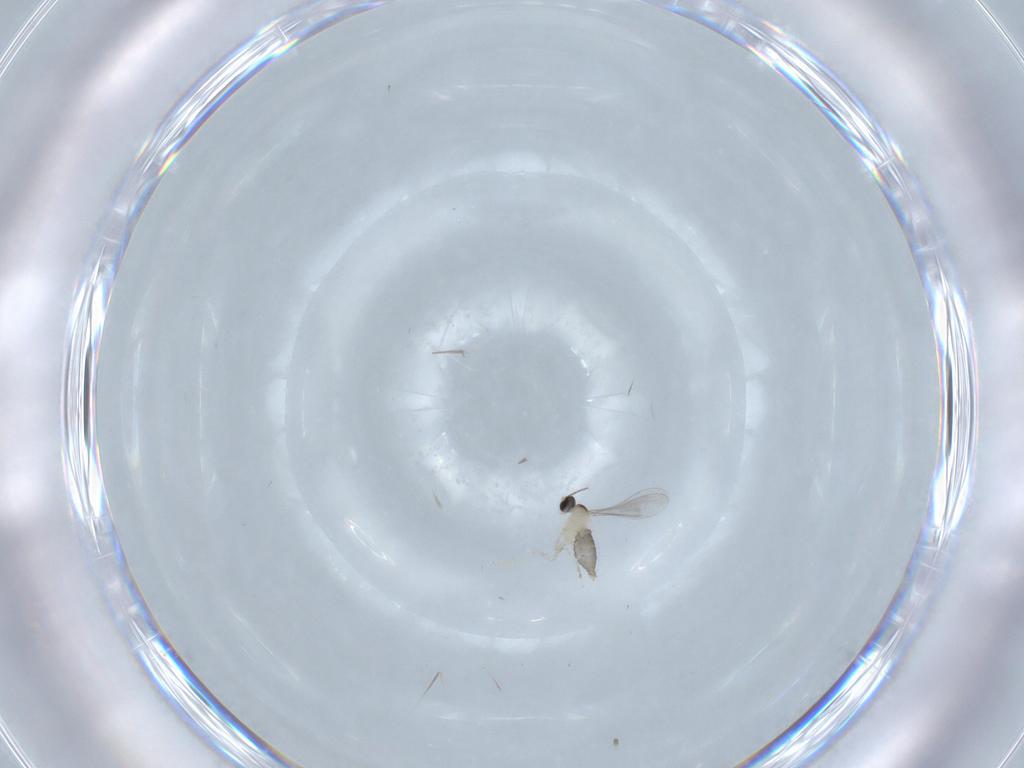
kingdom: Animalia
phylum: Arthropoda
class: Insecta
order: Diptera
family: Cecidomyiidae
